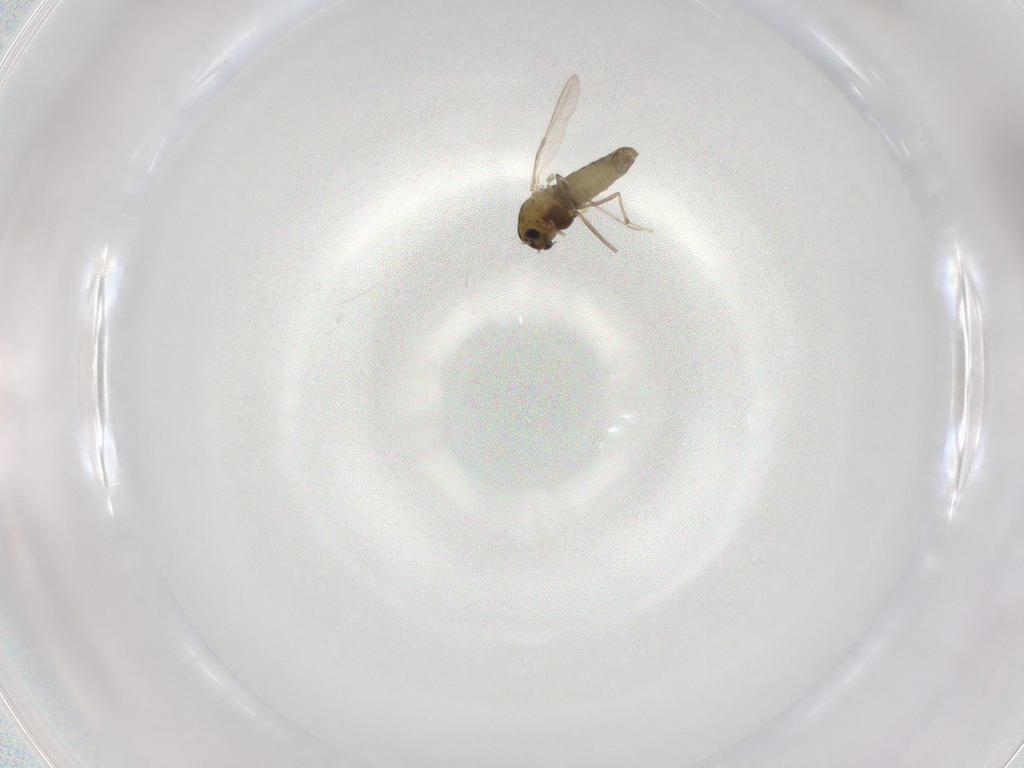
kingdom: Animalia
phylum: Arthropoda
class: Insecta
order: Diptera
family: Chironomidae
